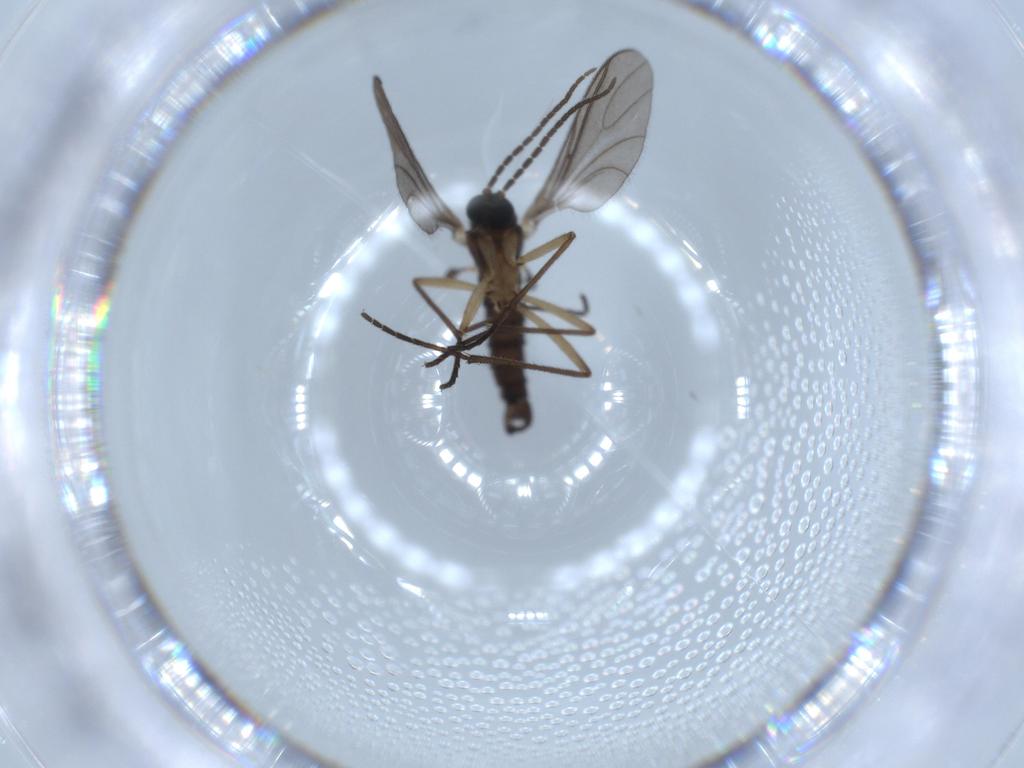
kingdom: Animalia
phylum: Arthropoda
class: Insecta
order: Diptera
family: Sciaridae
